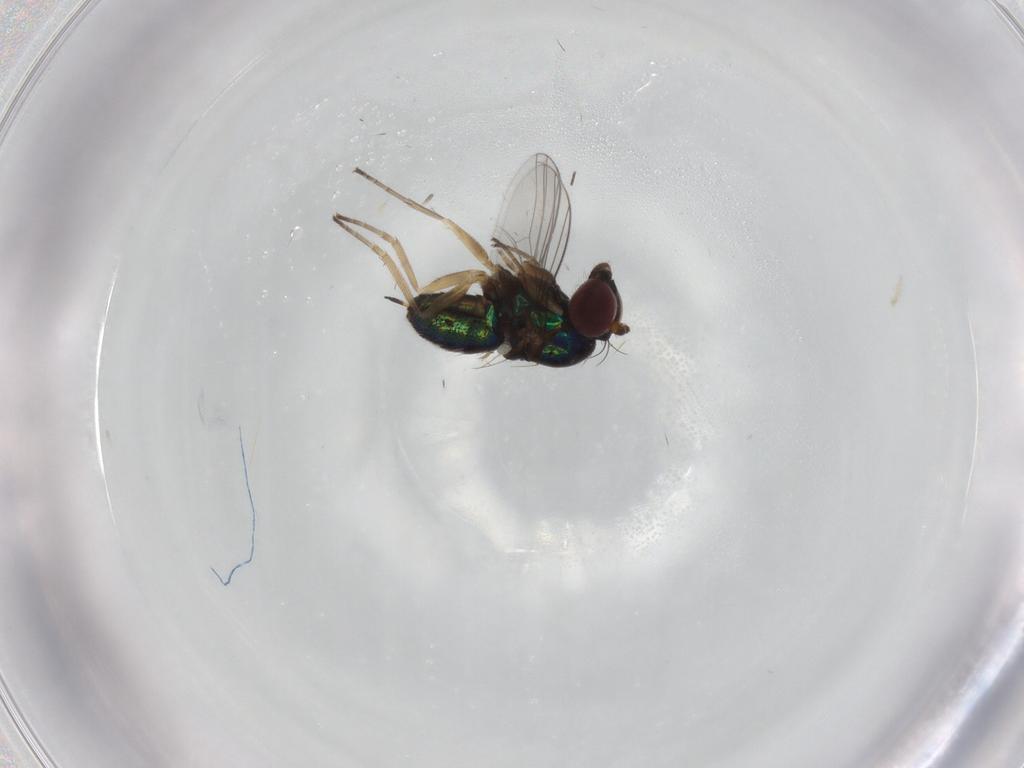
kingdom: Animalia
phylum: Arthropoda
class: Insecta
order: Diptera
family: Dolichopodidae
